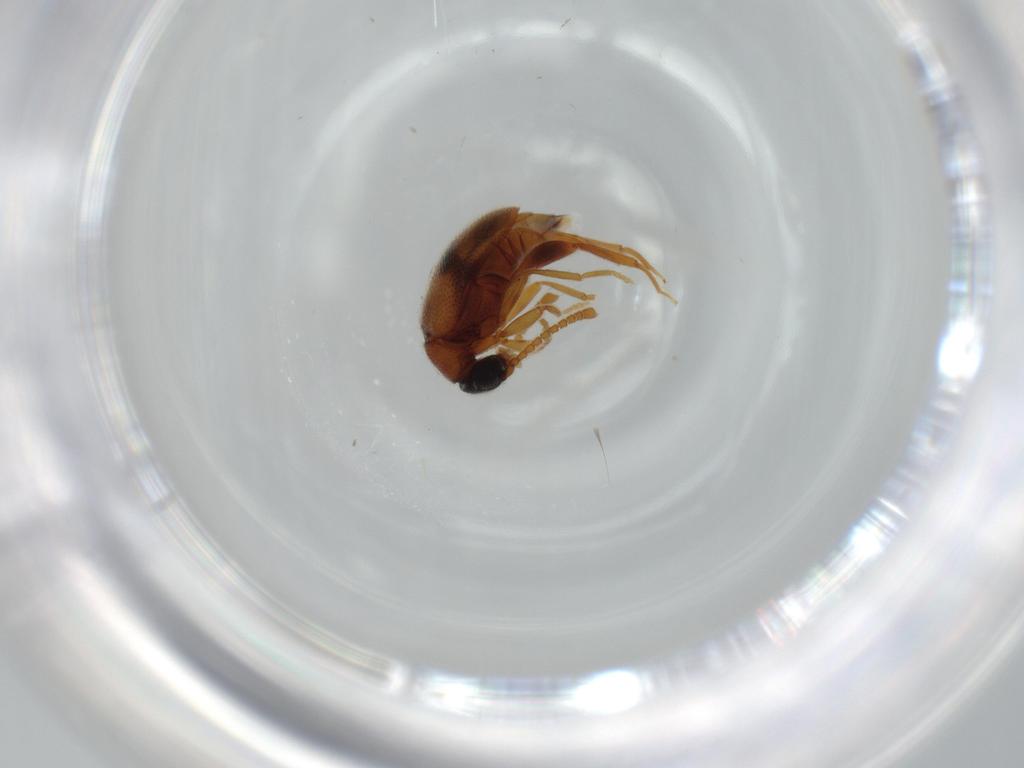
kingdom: Animalia
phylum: Arthropoda
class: Insecta
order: Coleoptera
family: Aderidae
